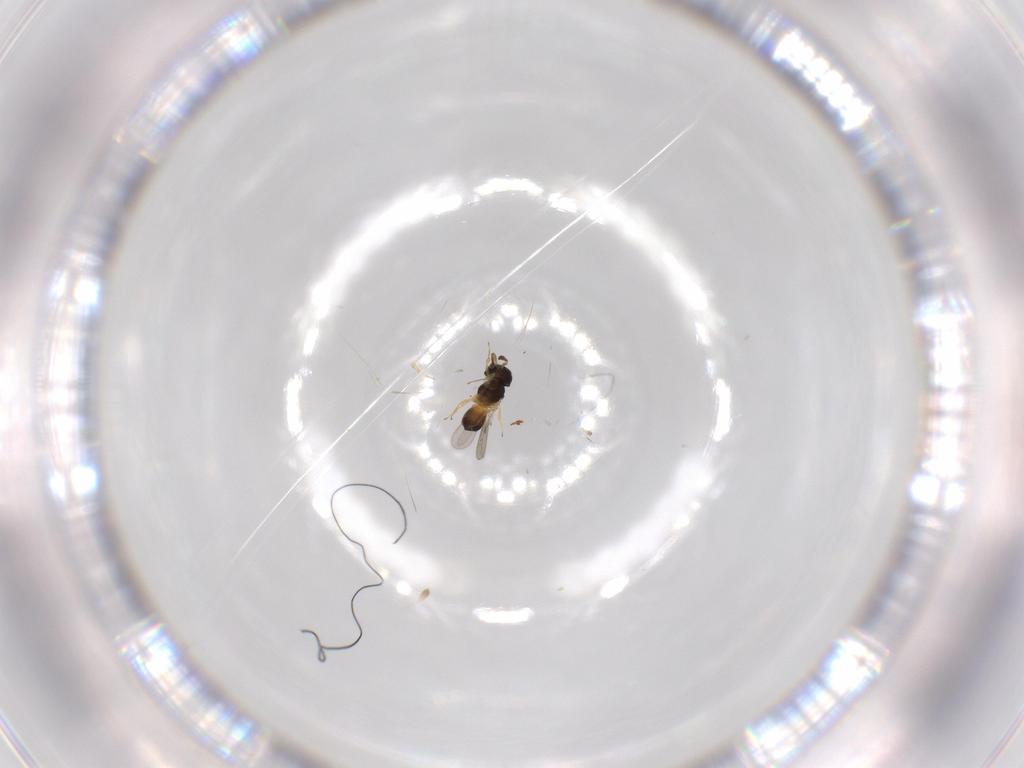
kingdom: Animalia
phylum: Arthropoda
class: Insecta
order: Hymenoptera
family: Scelionidae
